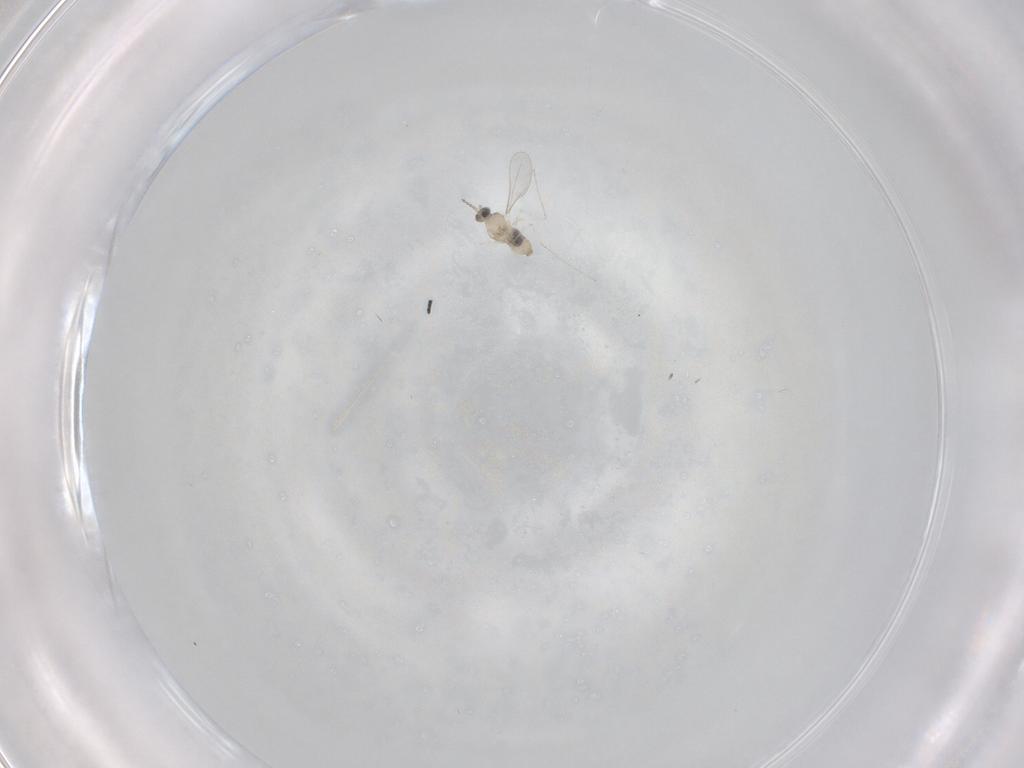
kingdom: Animalia
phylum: Arthropoda
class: Insecta
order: Diptera
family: Cecidomyiidae
